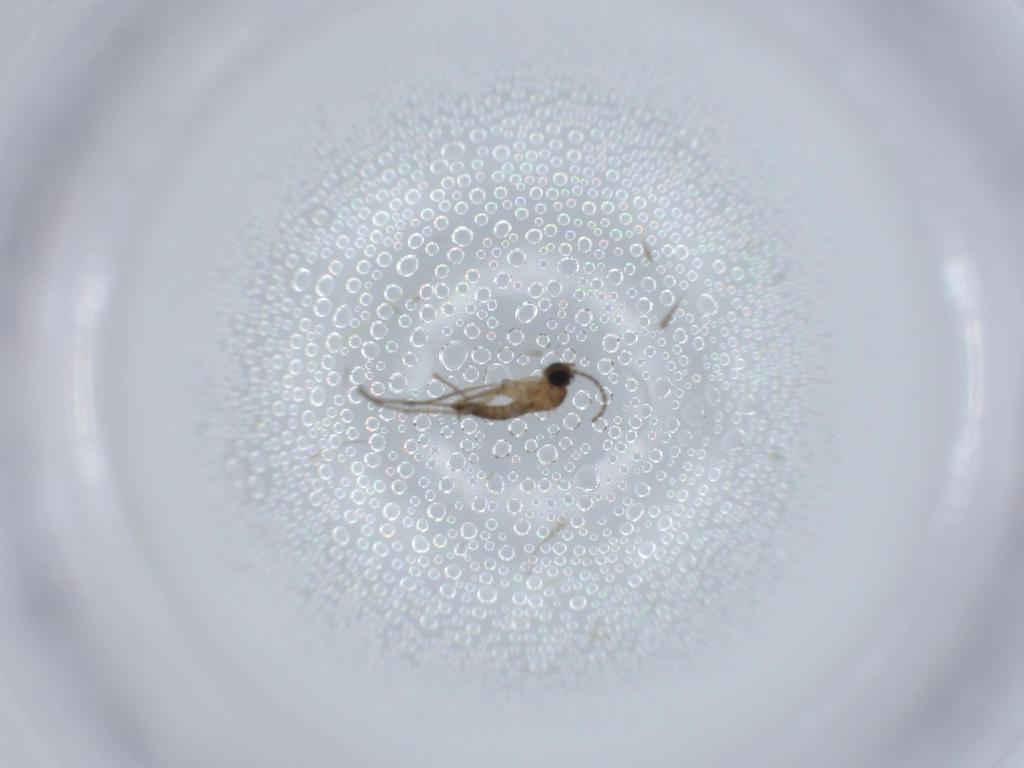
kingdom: Animalia
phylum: Arthropoda
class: Insecta
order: Diptera
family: Sciaridae
